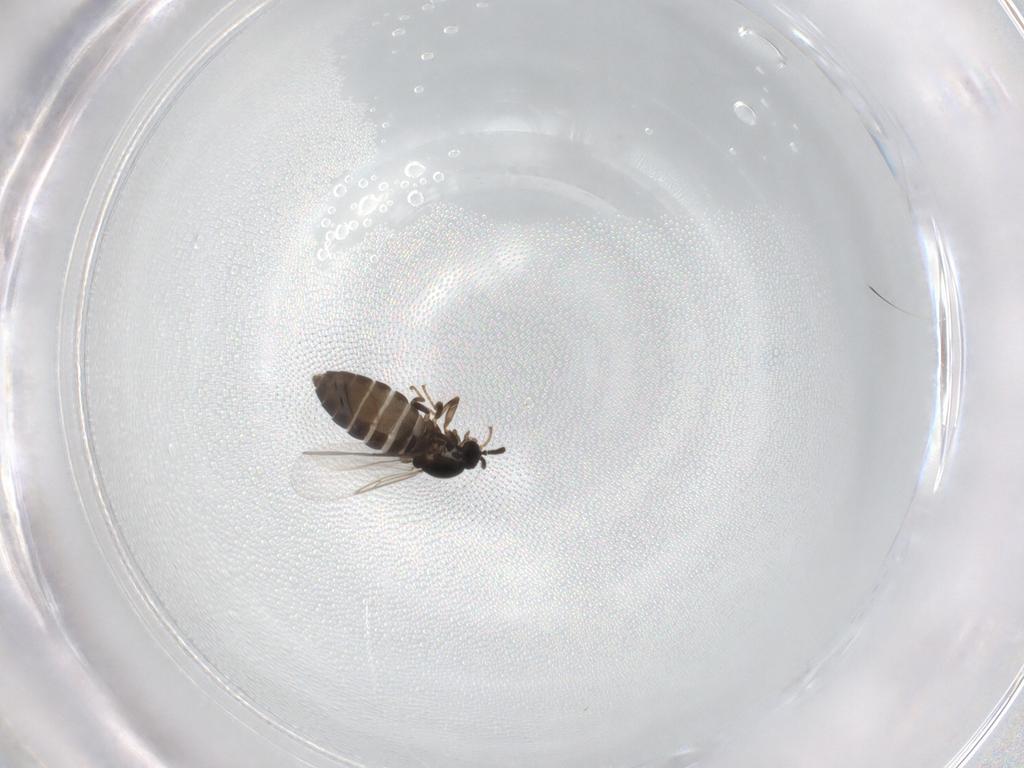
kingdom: Animalia
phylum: Arthropoda
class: Insecta
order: Diptera
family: Scatopsidae
